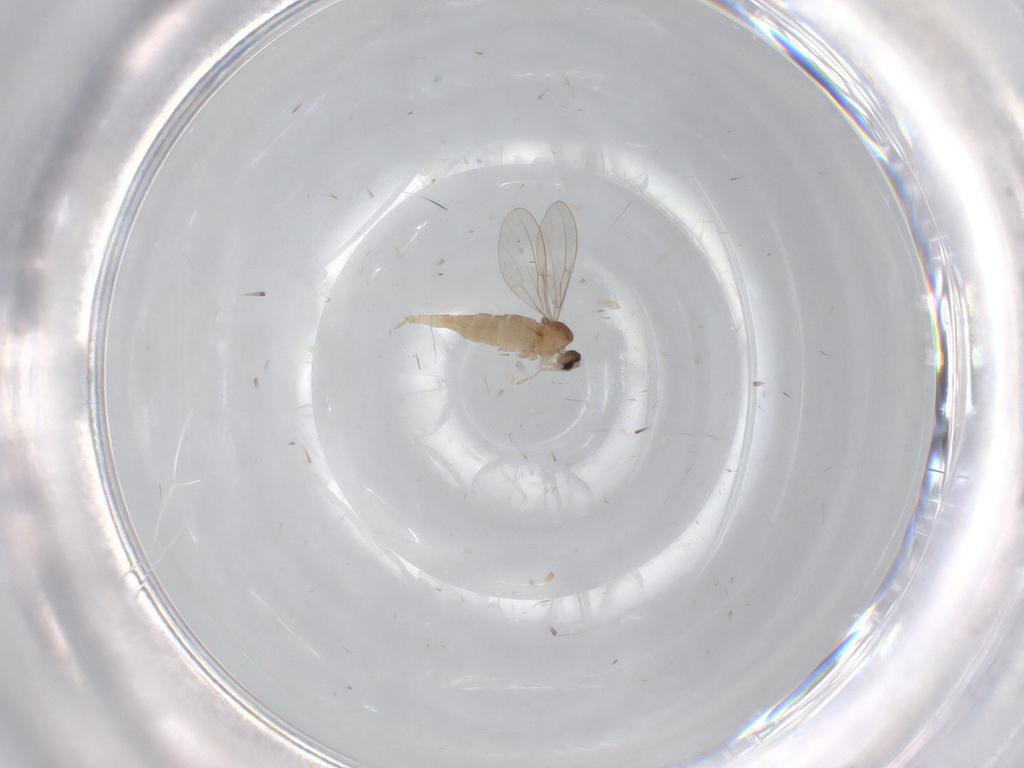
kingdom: Animalia
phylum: Arthropoda
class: Insecta
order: Diptera
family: Cecidomyiidae
